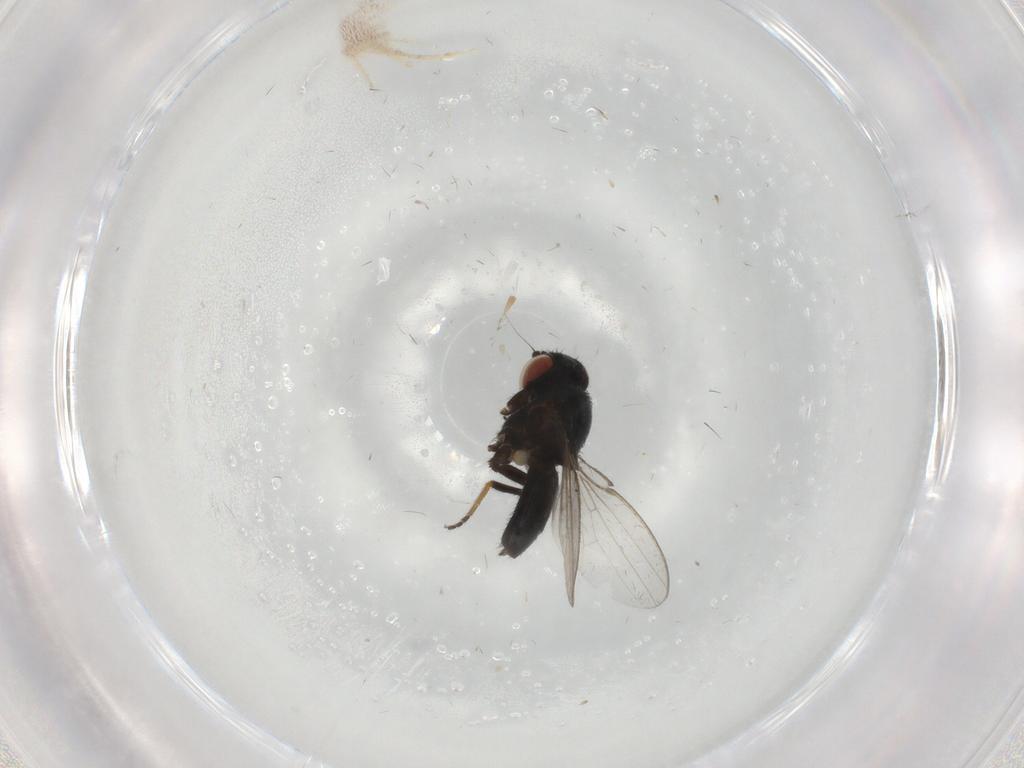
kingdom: Animalia
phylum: Arthropoda
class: Insecta
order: Diptera
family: Milichiidae
